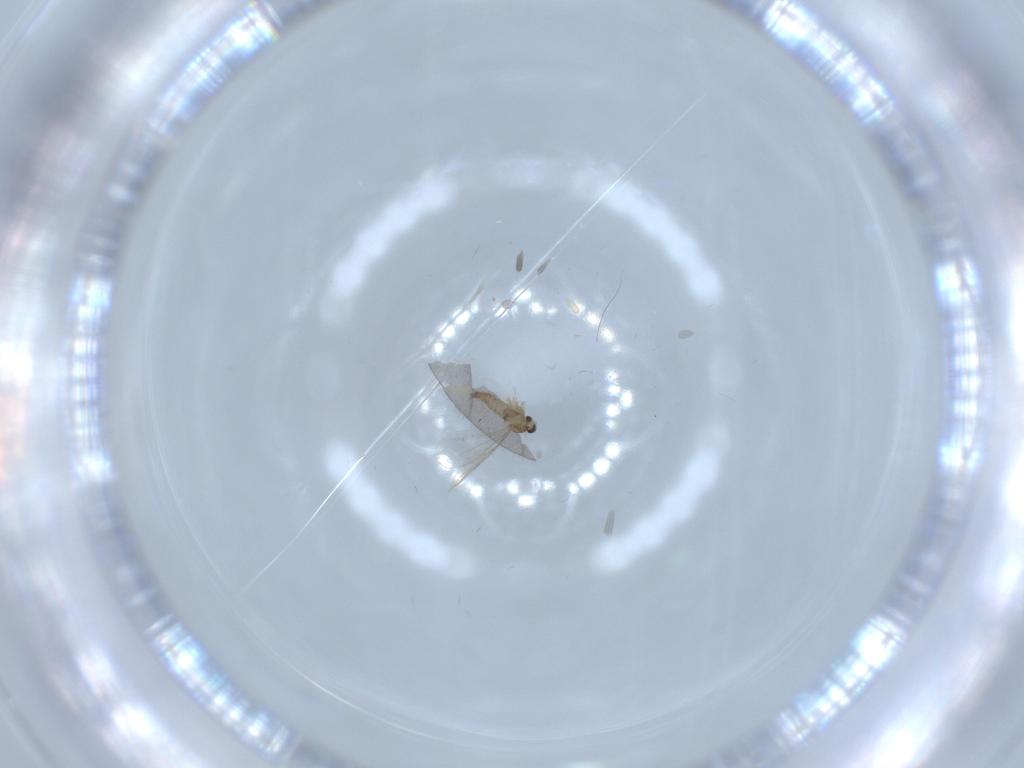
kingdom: Animalia
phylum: Arthropoda
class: Insecta
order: Diptera
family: Cecidomyiidae
